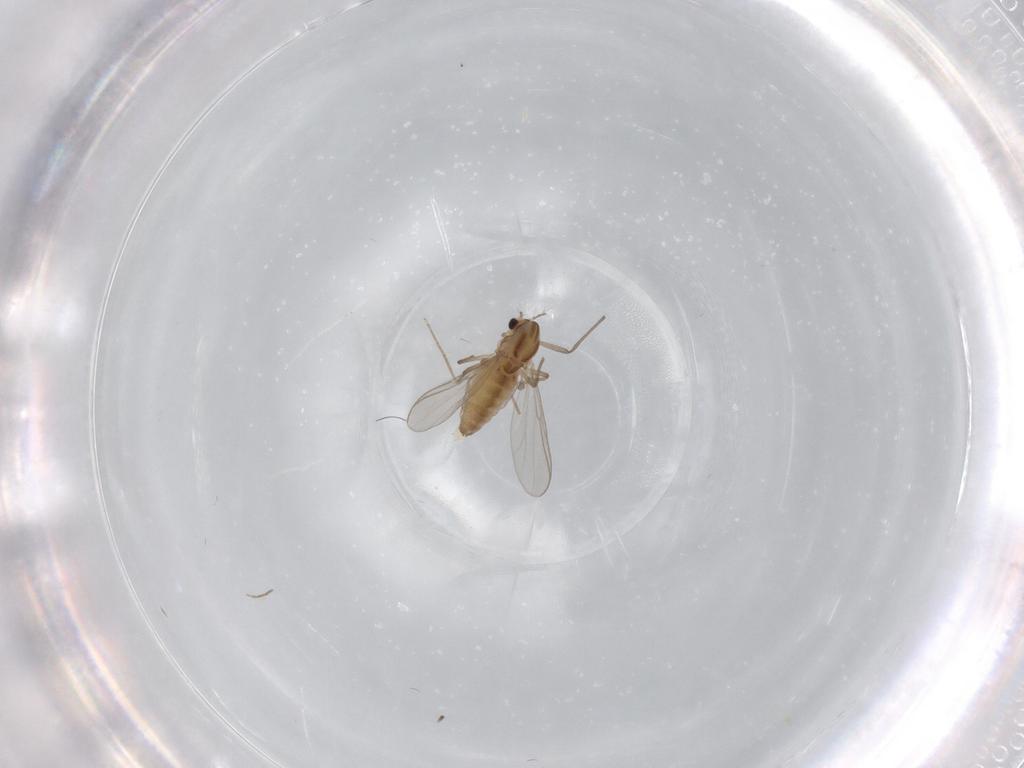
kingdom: Animalia
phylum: Arthropoda
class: Insecta
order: Diptera
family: Chironomidae
